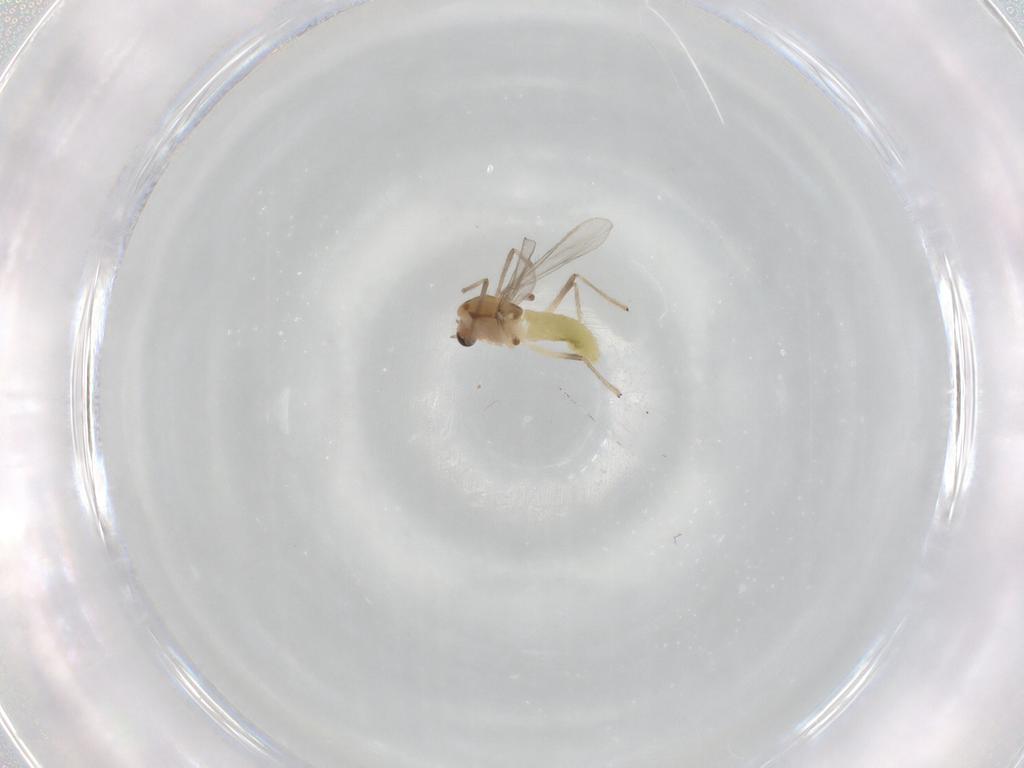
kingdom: Animalia
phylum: Arthropoda
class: Insecta
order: Diptera
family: Chironomidae
